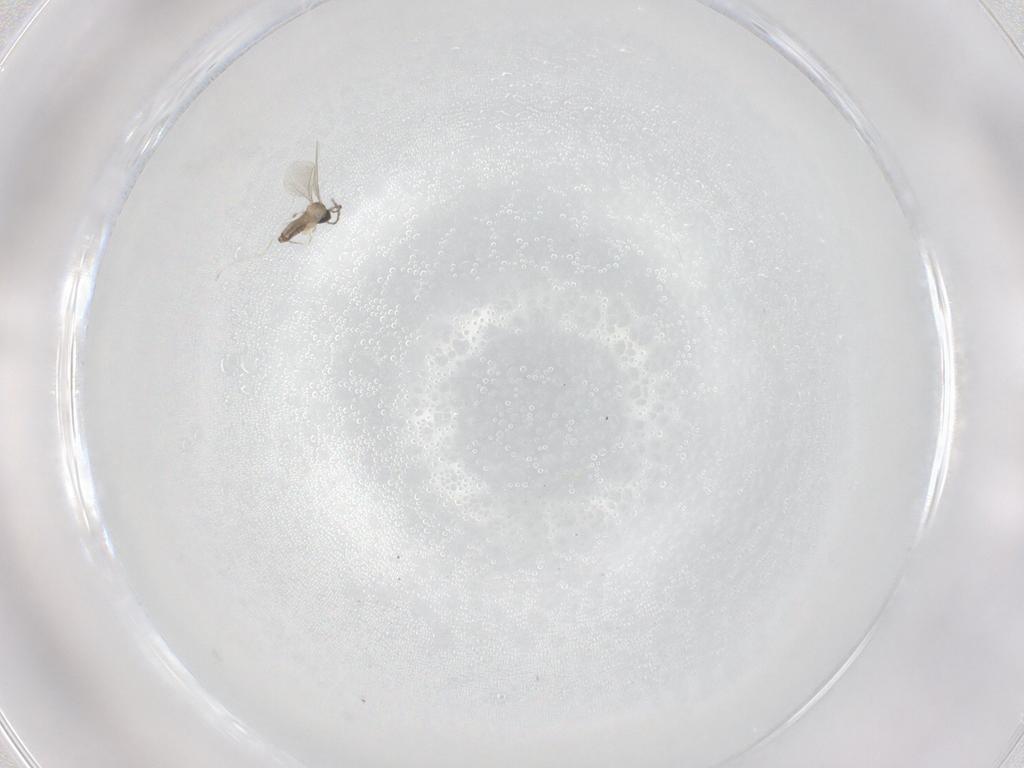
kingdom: Animalia
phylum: Arthropoda
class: Insecta
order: Diptera
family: Cecidomyiidae
